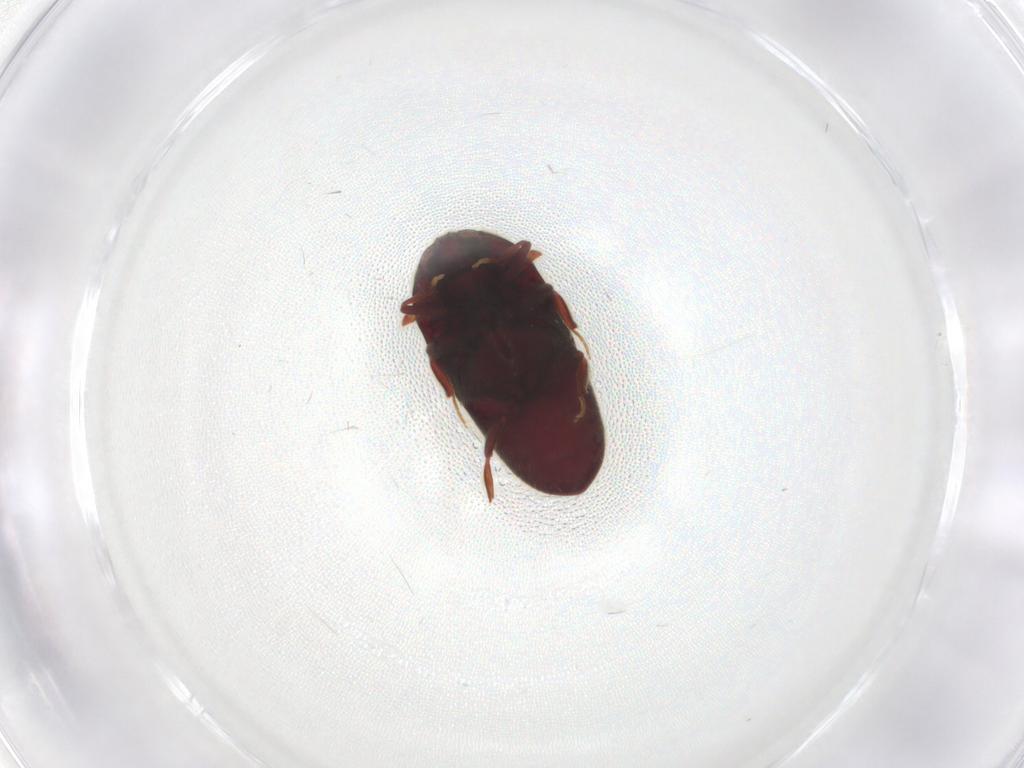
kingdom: Animalia
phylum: Arthropoda
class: Insecta
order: Coleoptera
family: Throscidae
